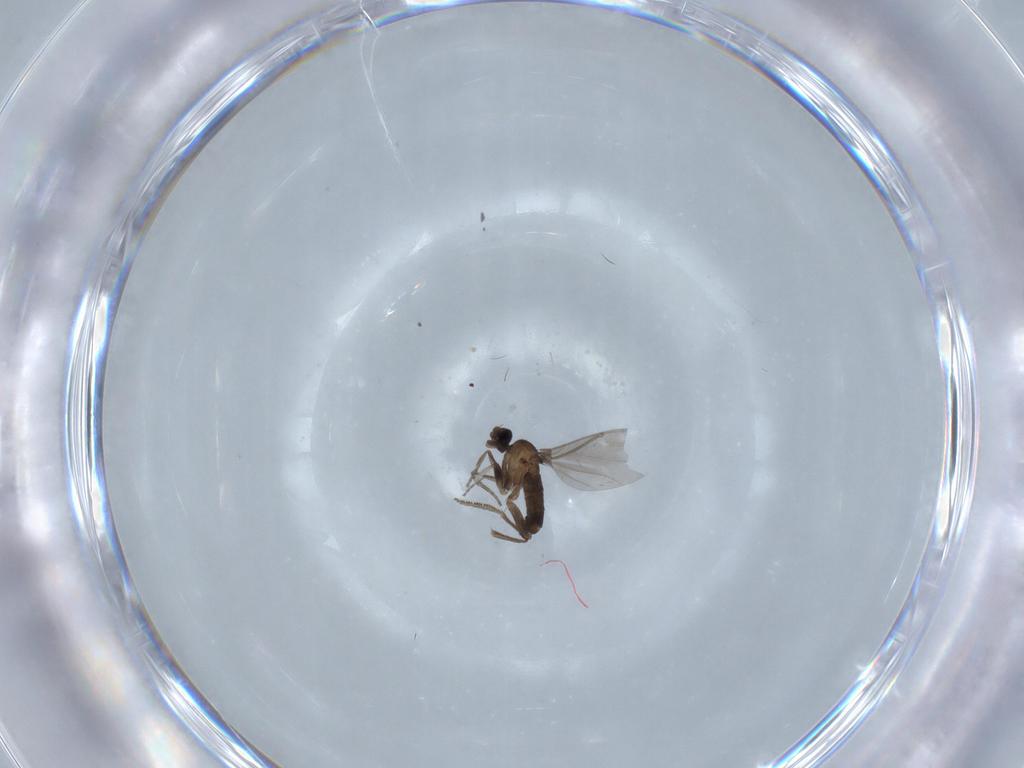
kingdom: Animalia
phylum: Arthropoda
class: Insecta
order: Diptera
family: Phoridae
